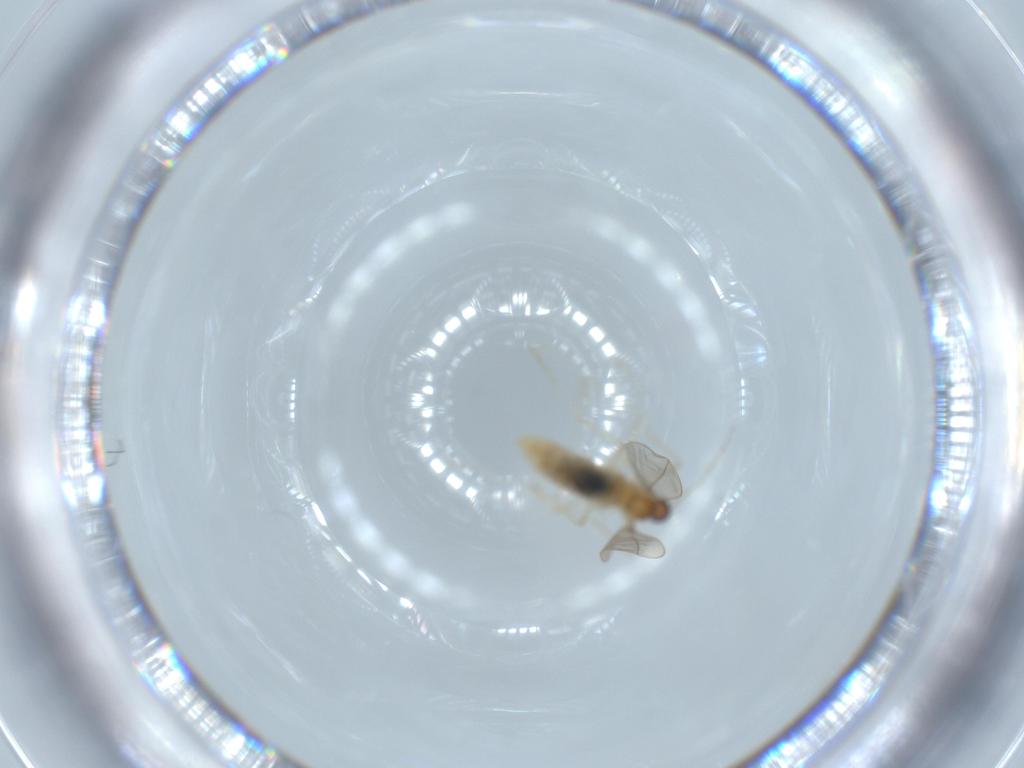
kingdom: Animalia
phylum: Arthropoda
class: Insecta
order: Diptera
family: Cecidomyiidae
